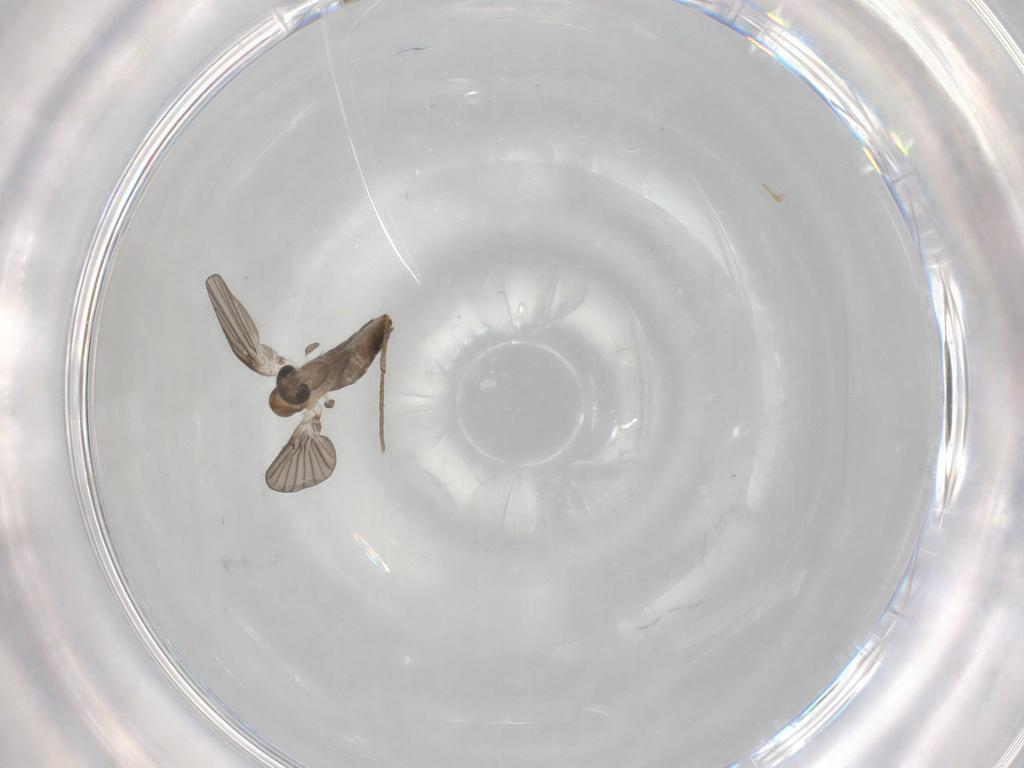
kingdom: Animalia
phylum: Arthropoda
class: Insecta
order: Diptera
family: Psychodidae
